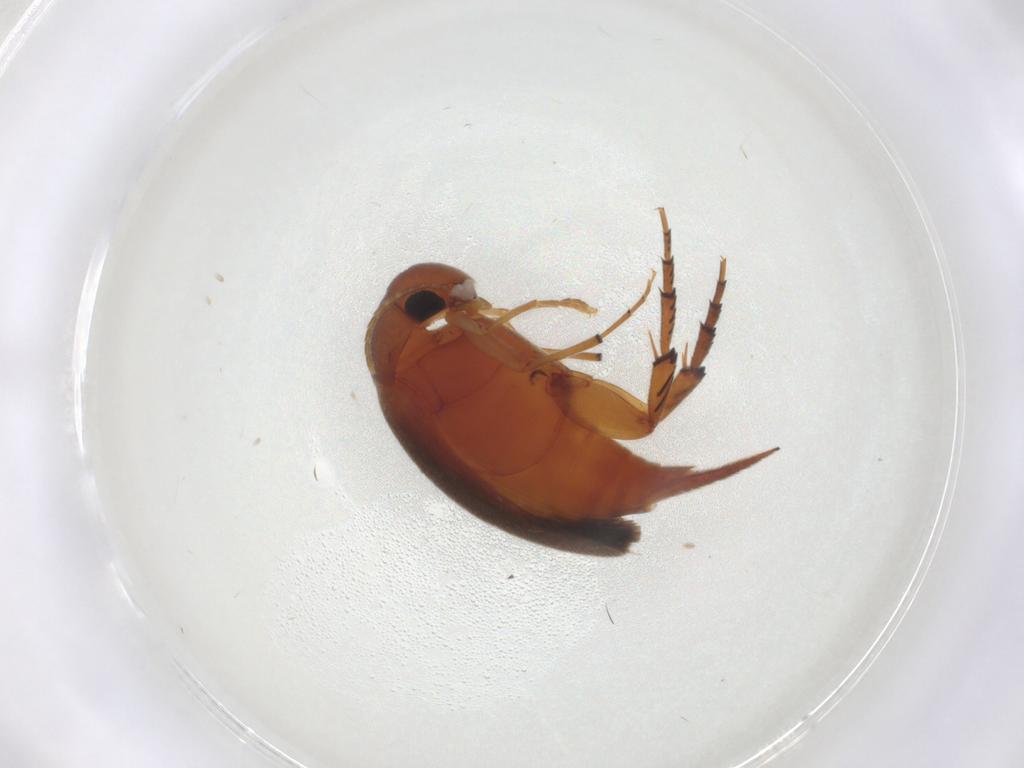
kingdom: Animalia
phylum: Arthropoda
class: Insecta
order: Coleoptera
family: Mordellidae
